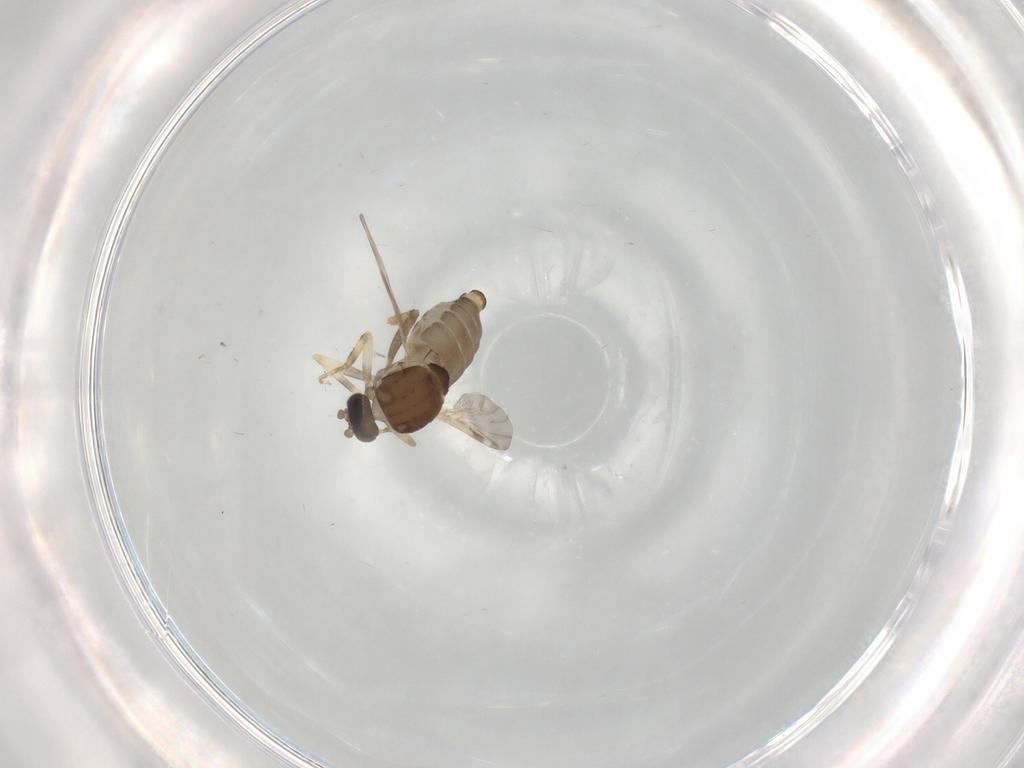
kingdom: Animalia
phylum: Arthropoda
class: Insecta
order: Diptera
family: Ceratopogonidae
